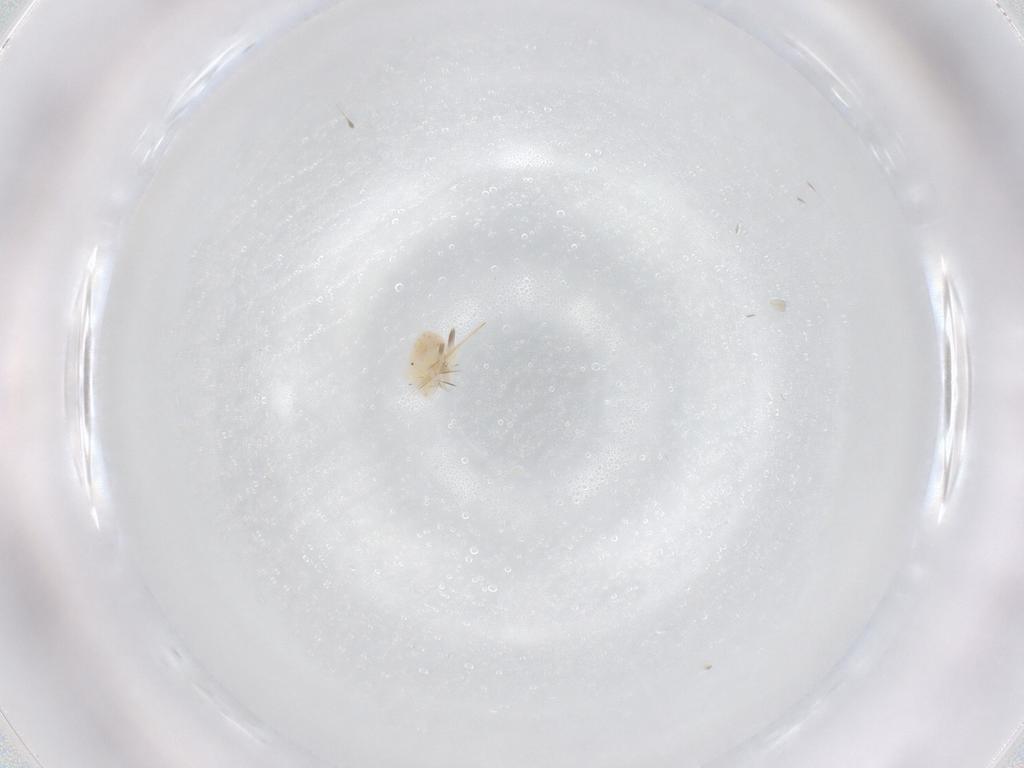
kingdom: Animalia
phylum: Arthropoda
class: Arachnida
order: Trombidiformes
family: Anystidae
